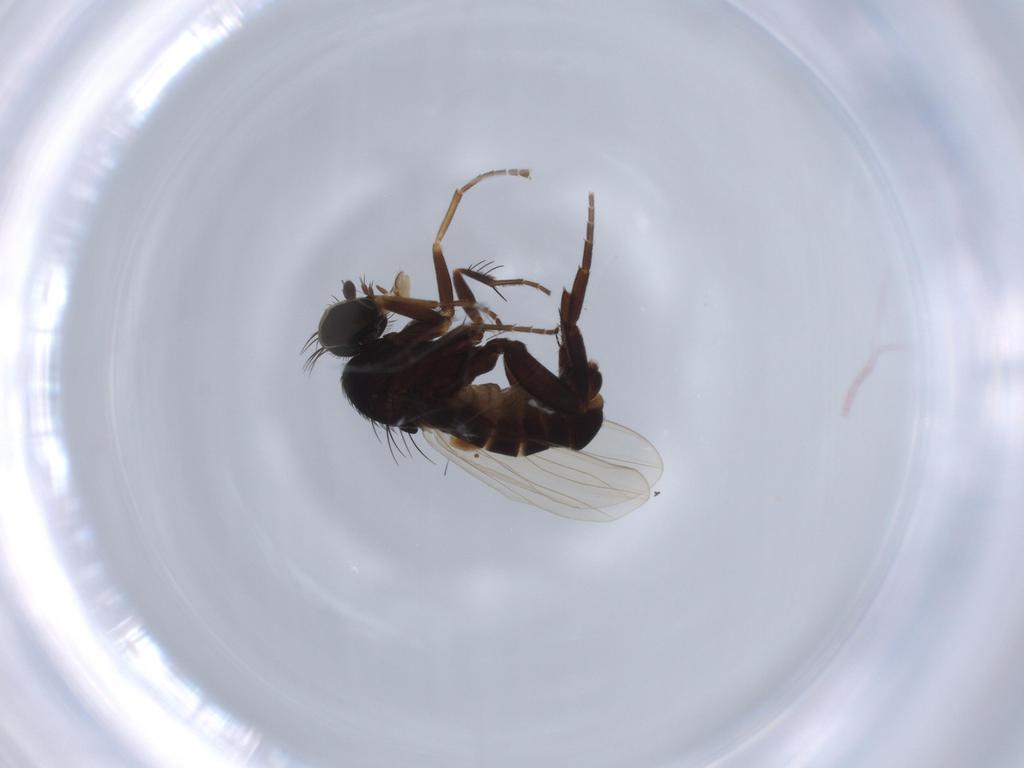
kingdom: Animalia
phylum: Arthropoda
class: Insecta
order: Diptera
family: Phoridae
